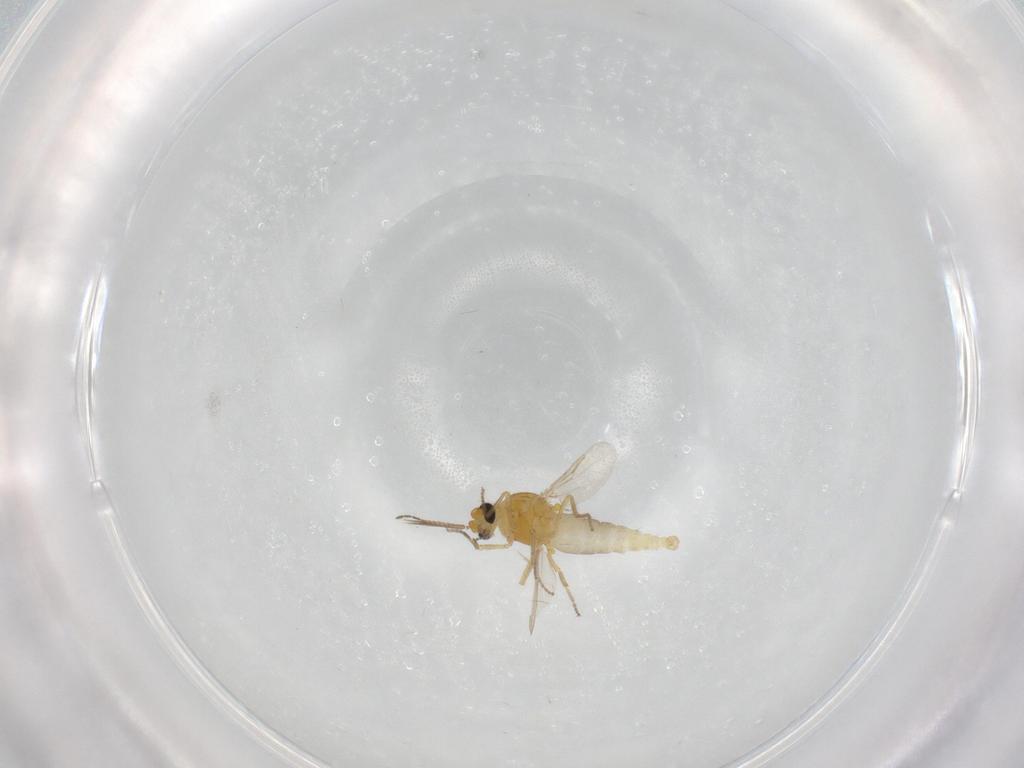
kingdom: Animalia
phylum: Arthropoda
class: Insecta
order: Diptera
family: Ceratopogonidae
